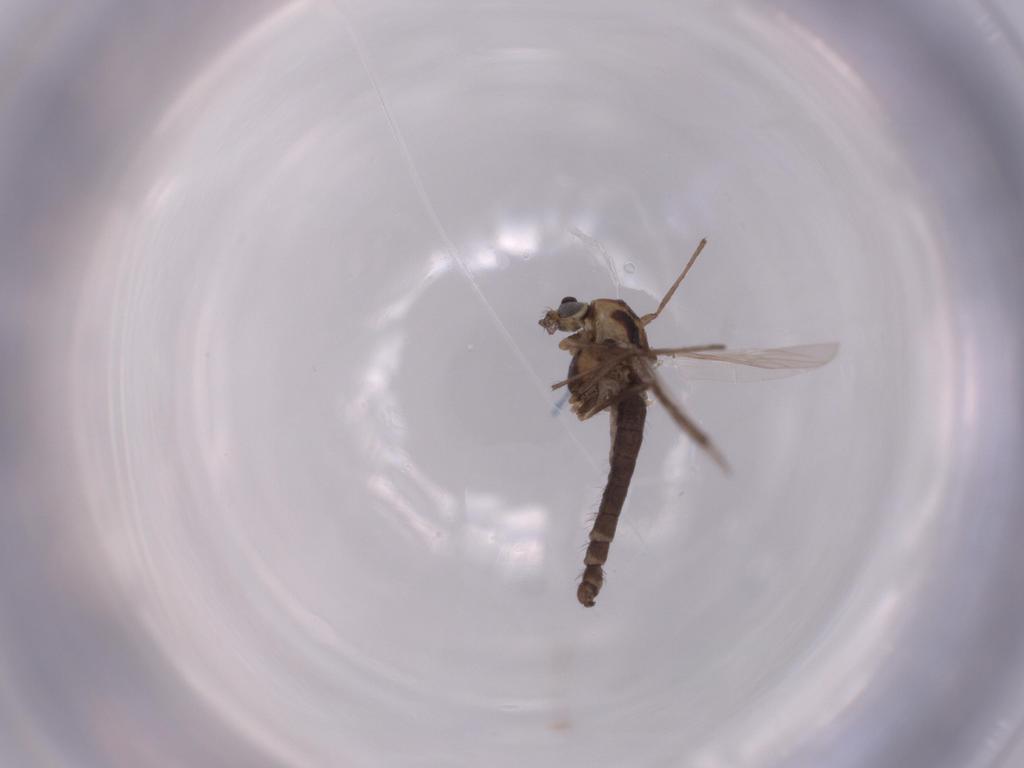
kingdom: Animalia
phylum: Arthropoda
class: Insecta
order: Diptera
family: Chironomidae
